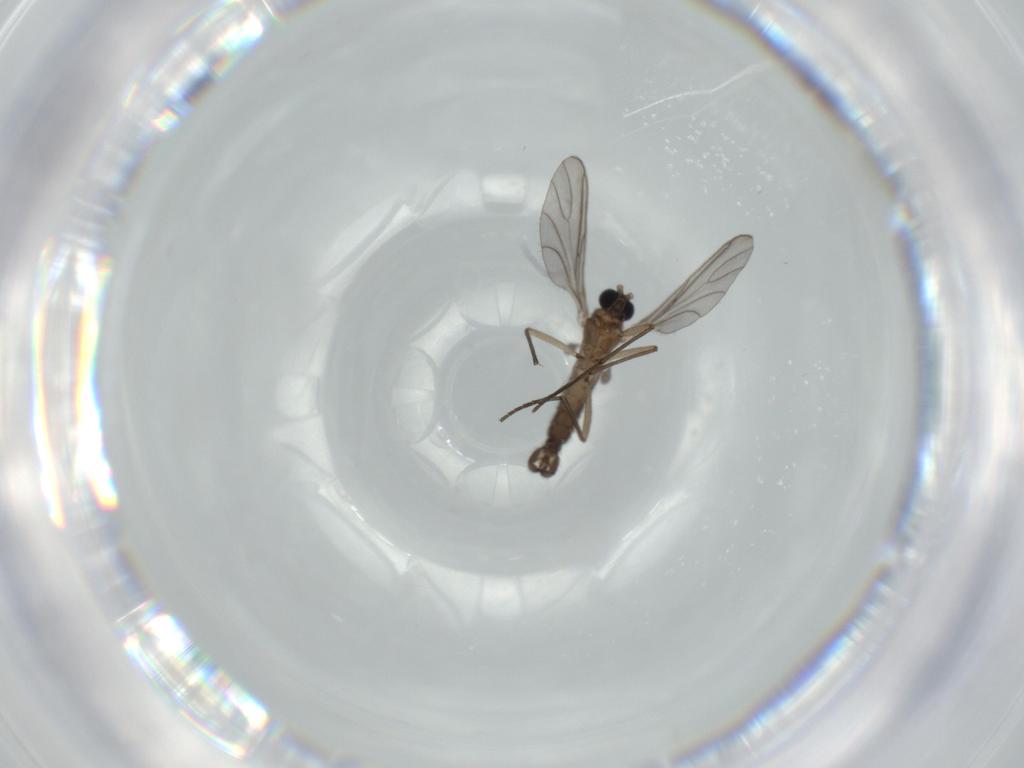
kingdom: Animalia
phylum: Arthropoda
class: Insecta
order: Diptera
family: Sciaridae
